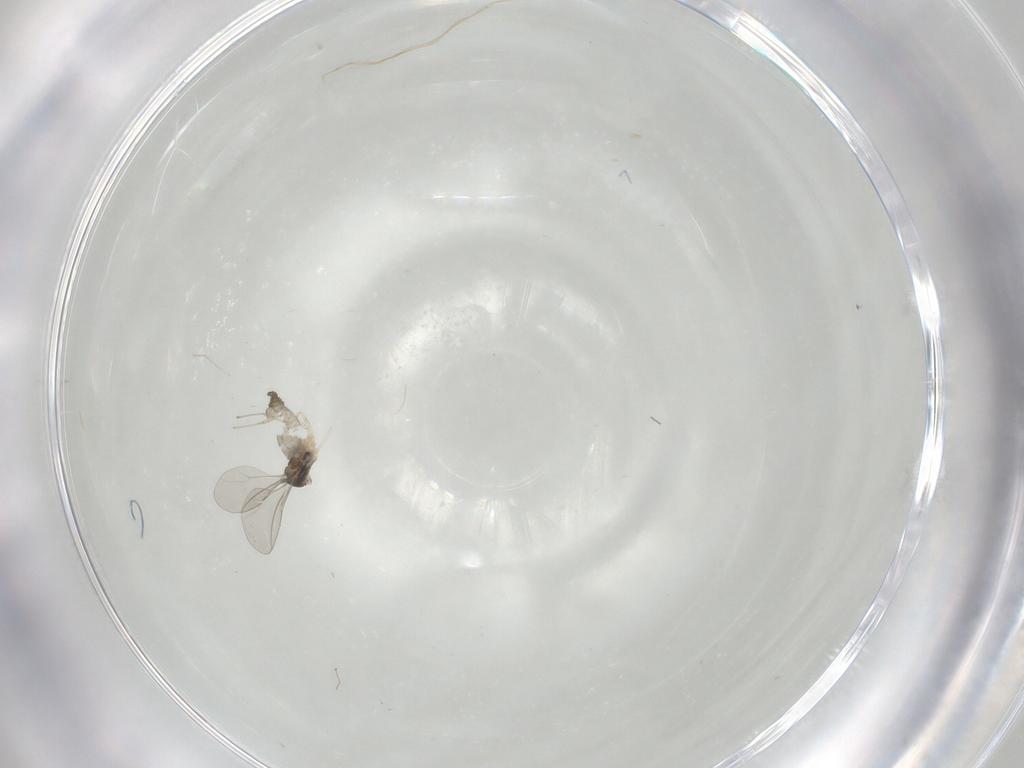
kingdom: Animalia
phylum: Arthropoda
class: Insecta
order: Diptera
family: Cecidomyiidae
